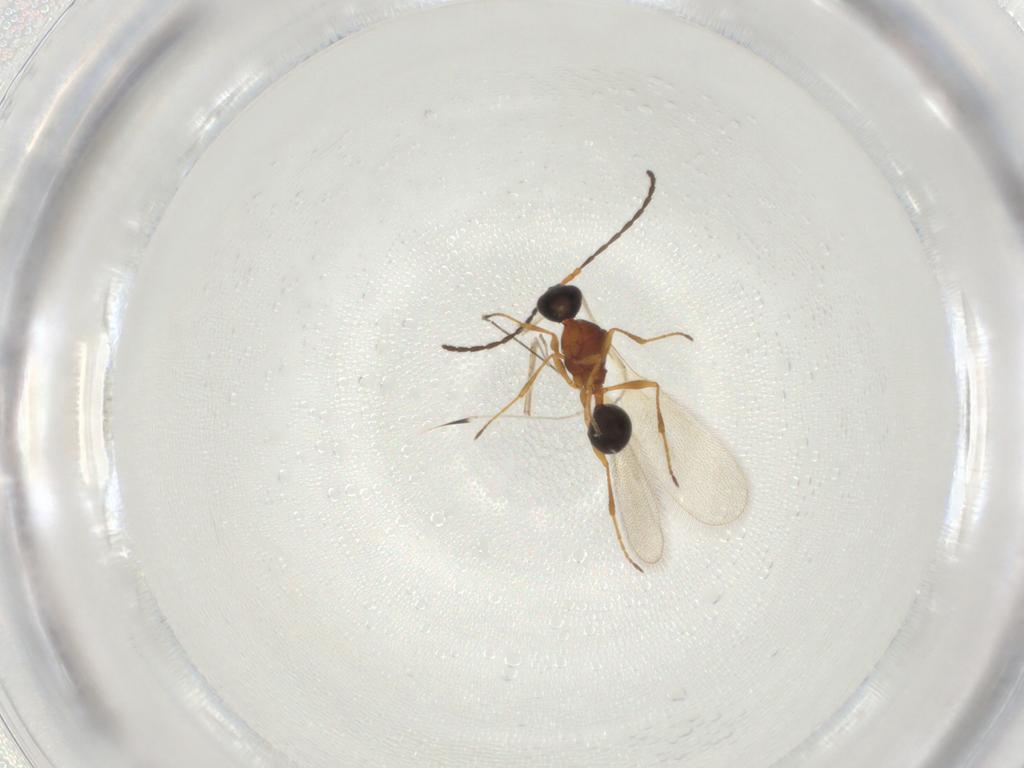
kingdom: Animalia
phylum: Arthropoda
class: Insecta
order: Hymenoptera
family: Diapriidae
